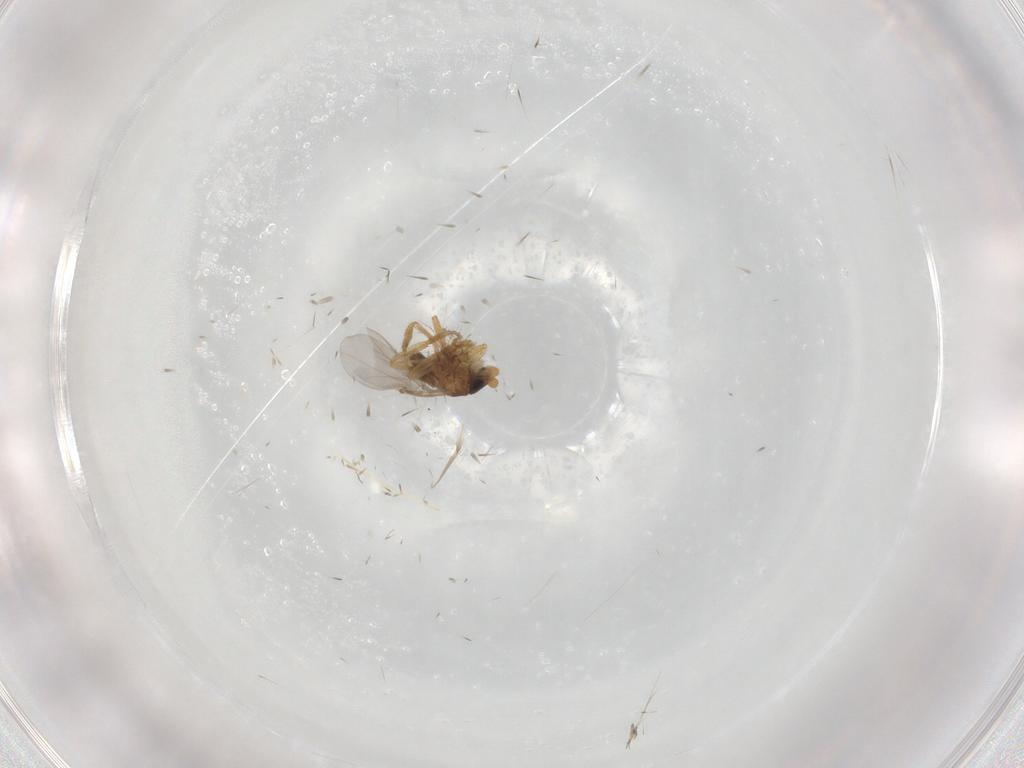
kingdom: Animalia
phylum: Arthropoda
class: Insecta
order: Diptera
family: Phoridae
